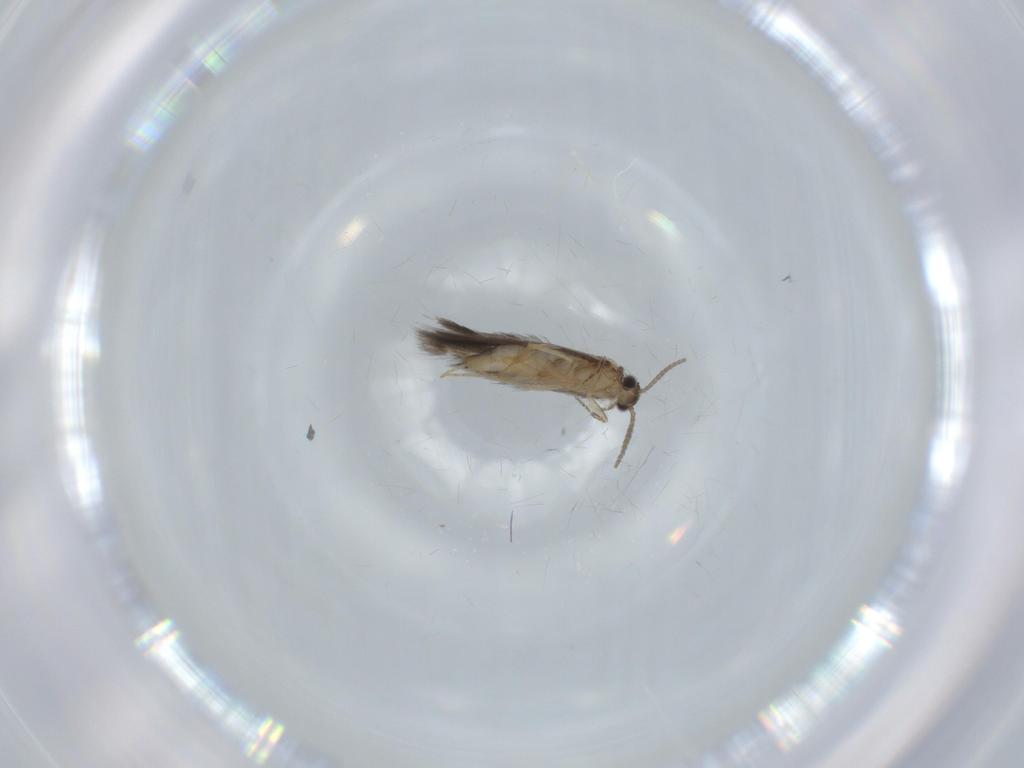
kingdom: Animalia
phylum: Arthropoda
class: Insecta
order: Trichoptera
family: Hydroptilidae
